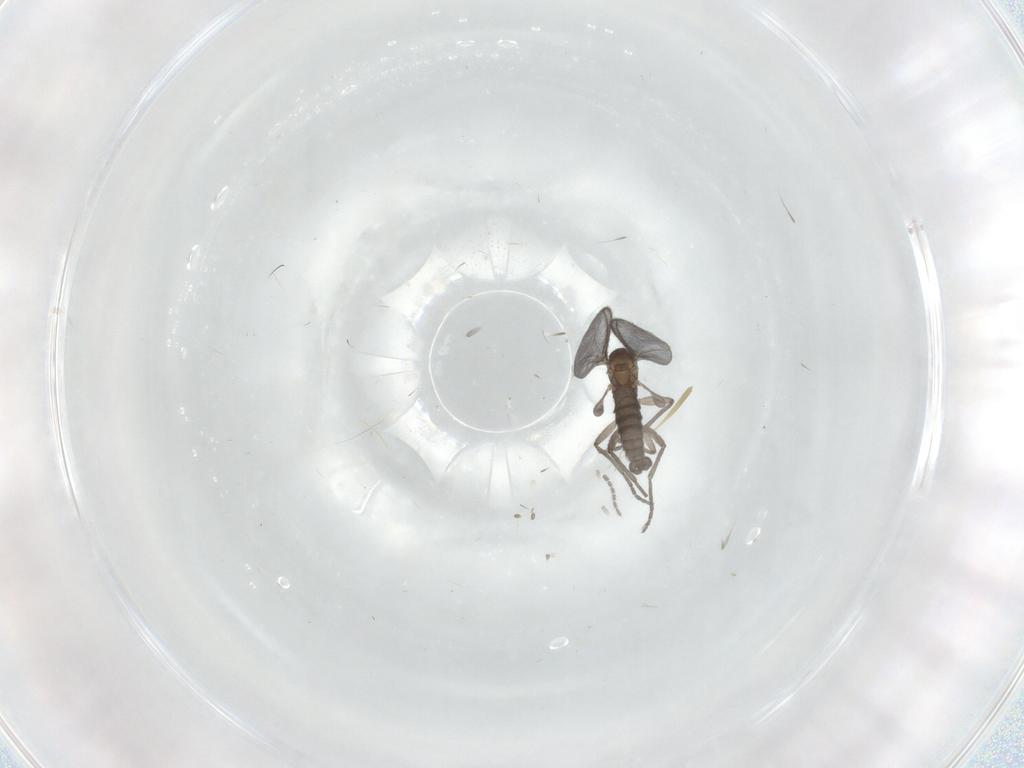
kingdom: Animalia
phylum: Arthropoda
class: Insecta
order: Diptera
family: Sciaridae
